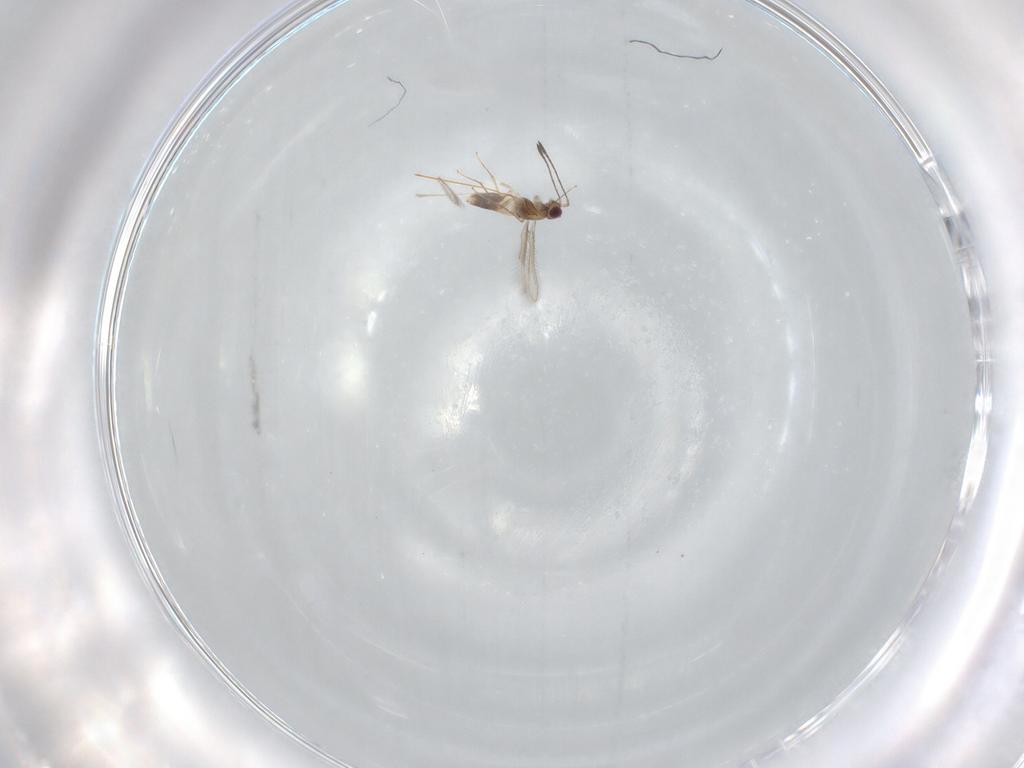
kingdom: Animalia
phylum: Arthropoda
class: Insecta
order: Hymenoptera
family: Mymaridae
